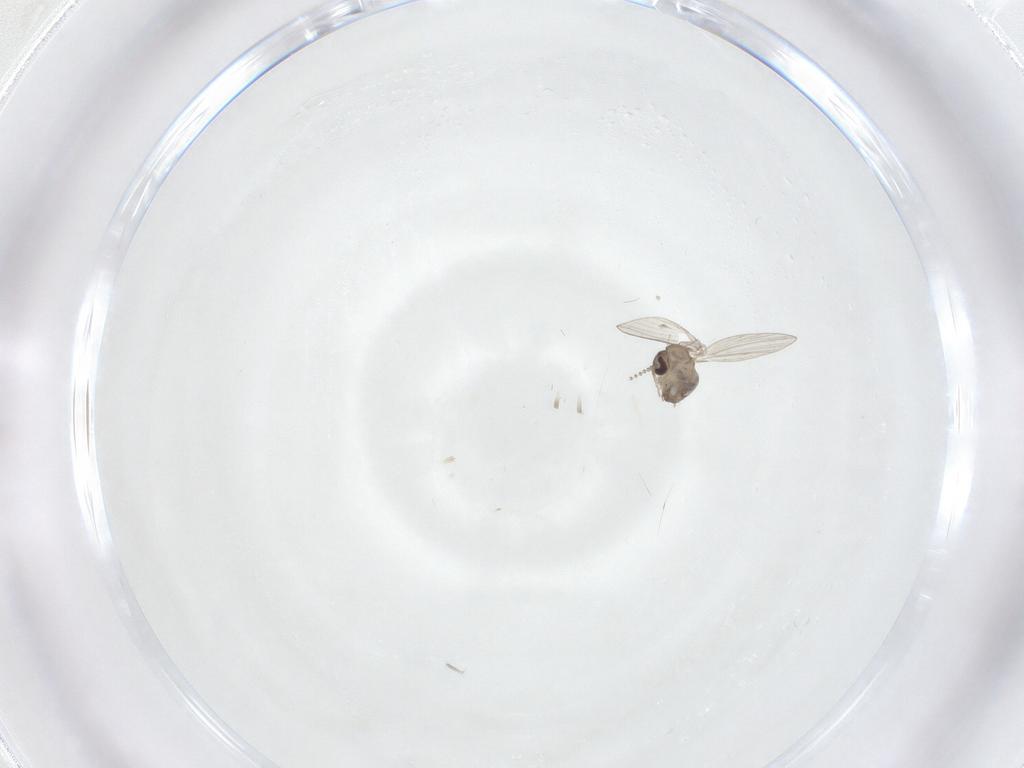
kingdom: Animalia
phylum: Arthropoda
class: Insecta
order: Diptera
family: Psychodidae
